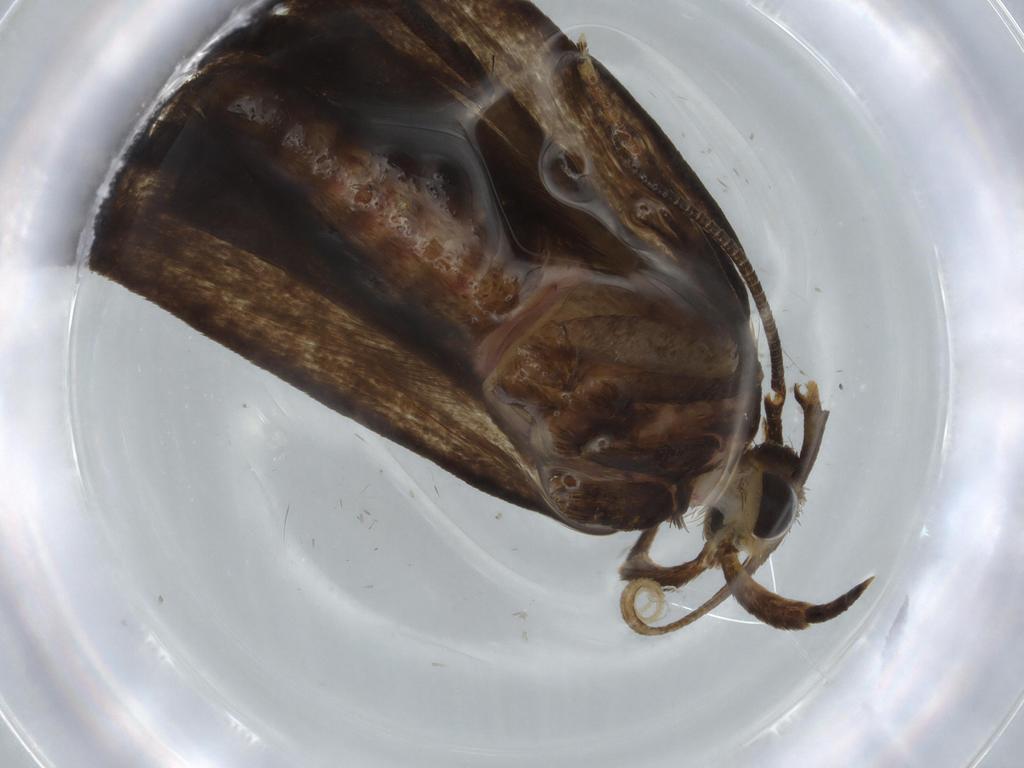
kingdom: Animalia
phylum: Arthropoda
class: Insecta
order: Lepidoptera
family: Autostichidae
